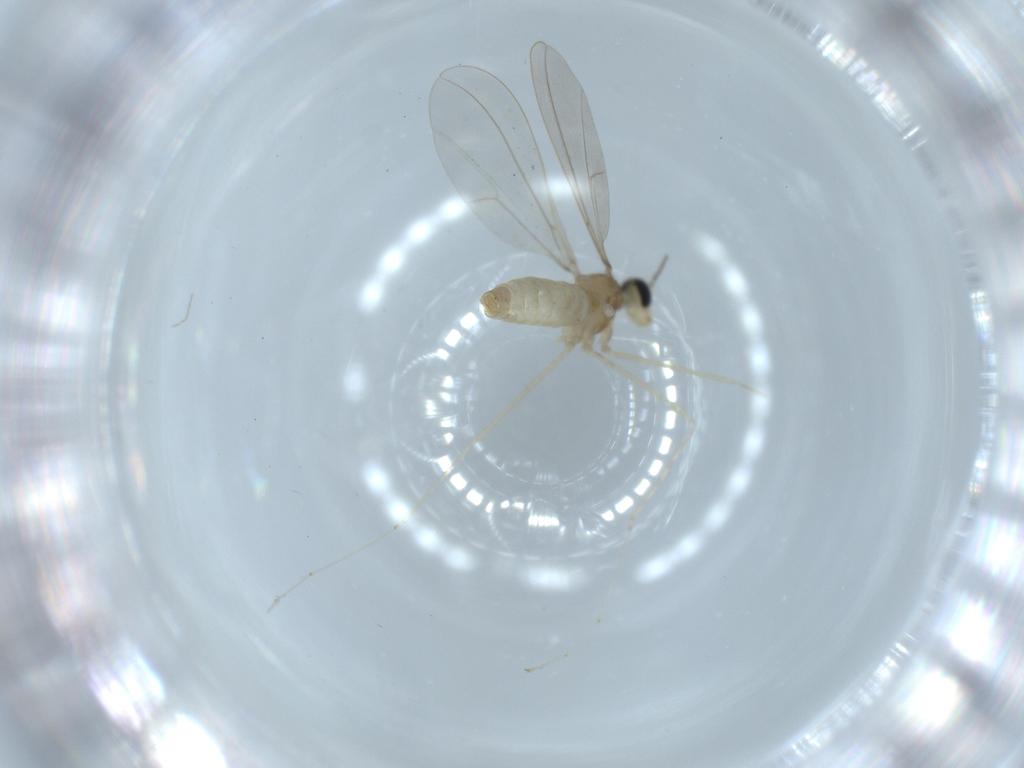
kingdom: Animalia
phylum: Arthropoda
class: Insecta
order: Diptera
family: Cecidomyiidae
